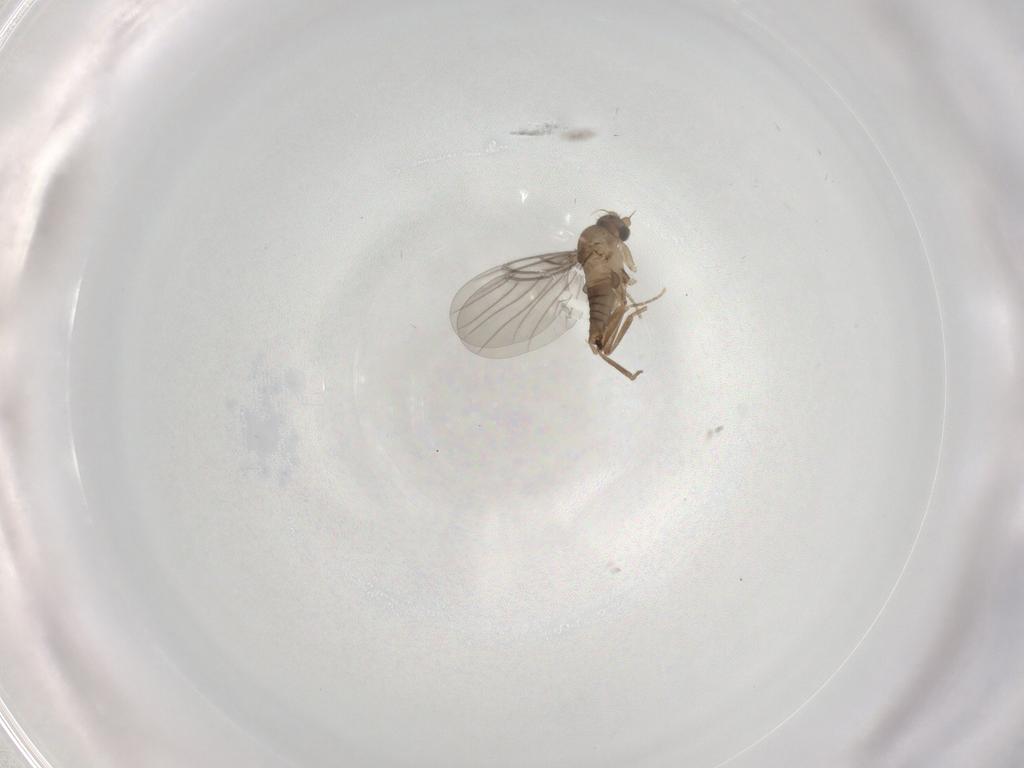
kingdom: Animalia
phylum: Arthropoda
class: Insecta
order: Diptera
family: Sciaridae
